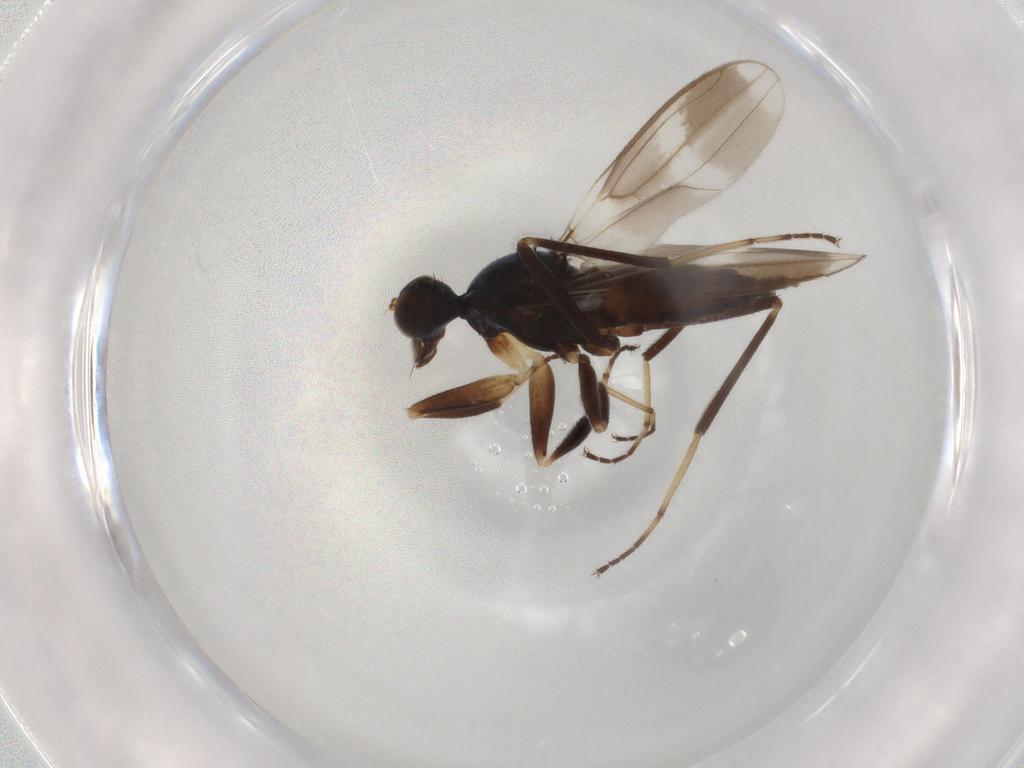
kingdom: Animalia
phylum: Arthropoda
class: Insecta
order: Diptera
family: Hybotidae
